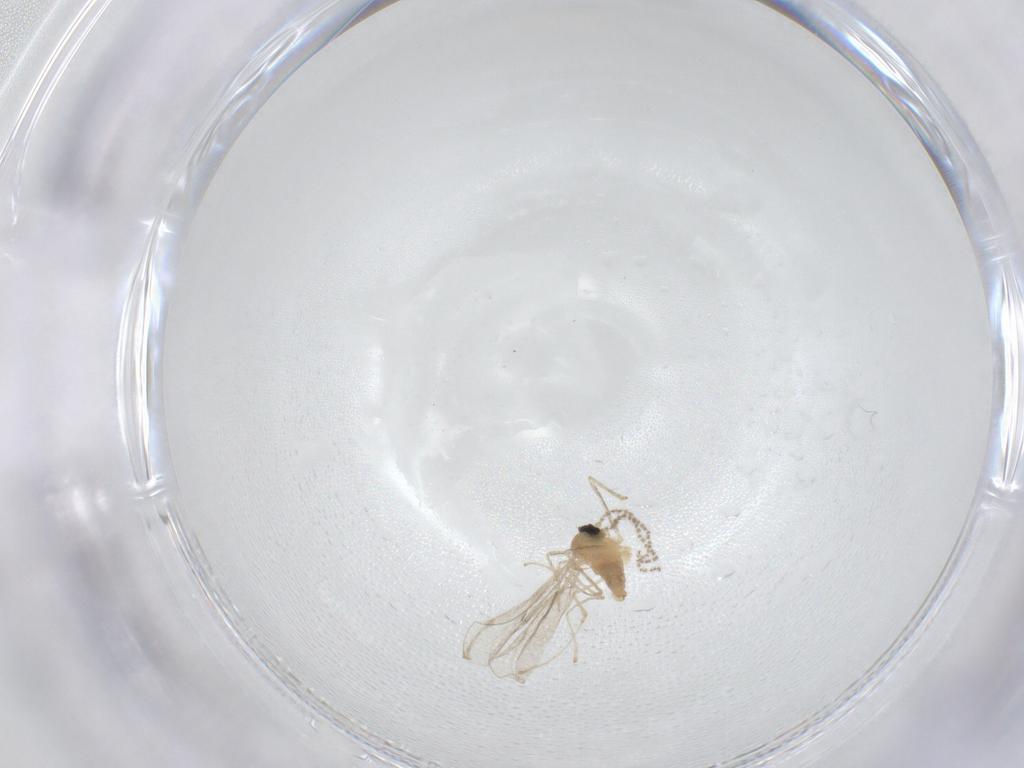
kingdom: Animalia
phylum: Arthropoda
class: Insecta
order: Diptera
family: Cecidomyiidae
